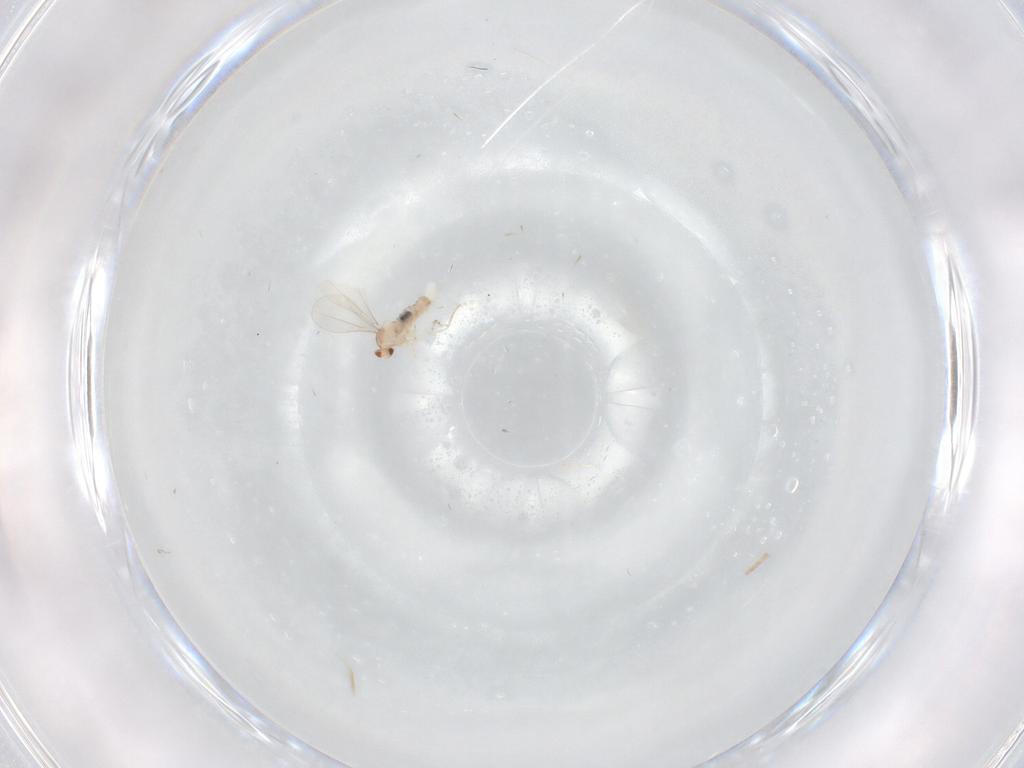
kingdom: Animalia
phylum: Arthropoda
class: Insecta
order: Diptera
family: Cecidomyiidae
